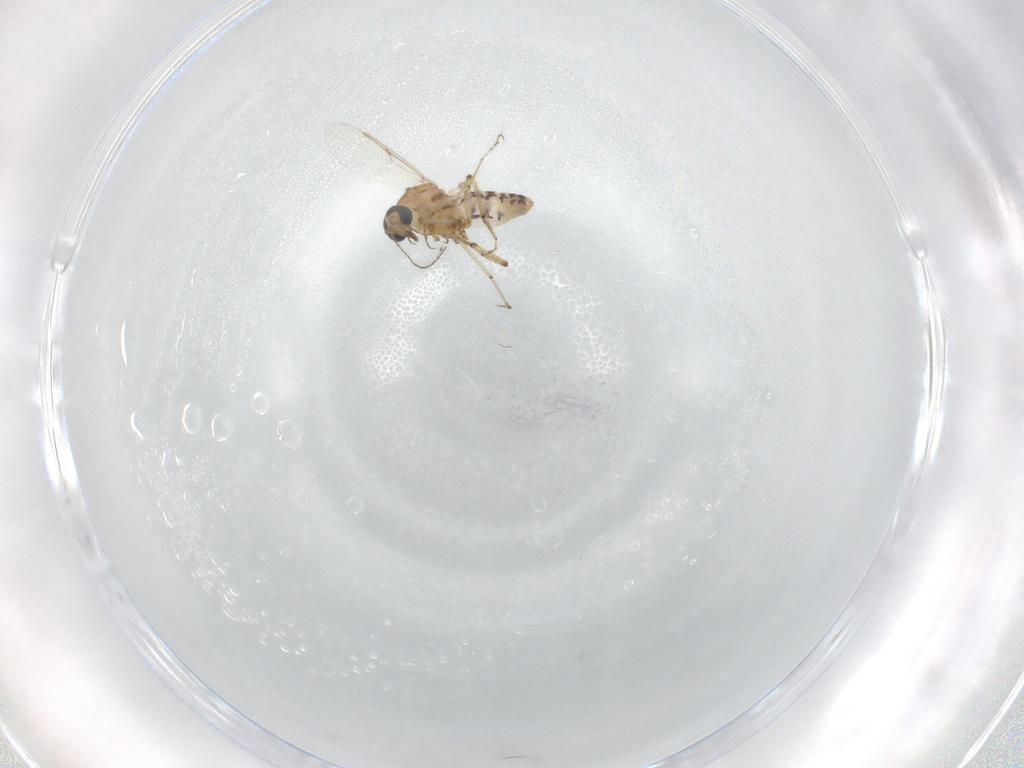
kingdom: Animalia
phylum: Arthropoda
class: Insecta
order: Diptera
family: Ceratopogonidae
